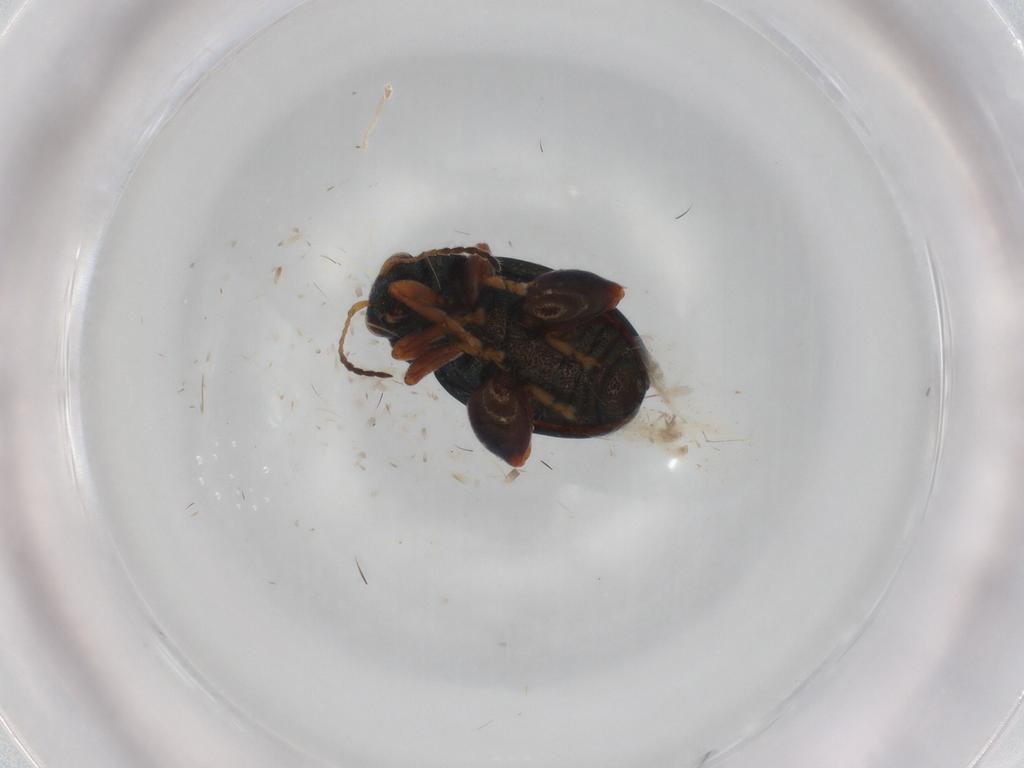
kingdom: Animalia
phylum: Arthropoda
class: Insecta
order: Coleoptera
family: Chrysomelidae
